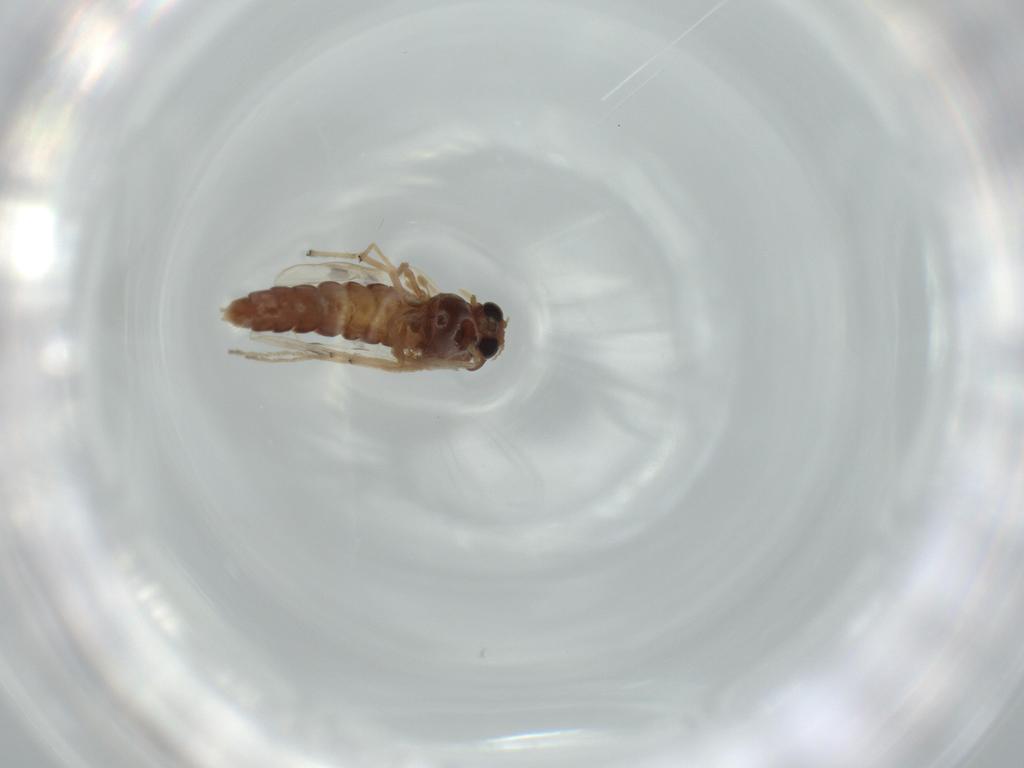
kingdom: Animalia
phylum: Arthropoda
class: Insecta
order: Diptera
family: Chironomidae
